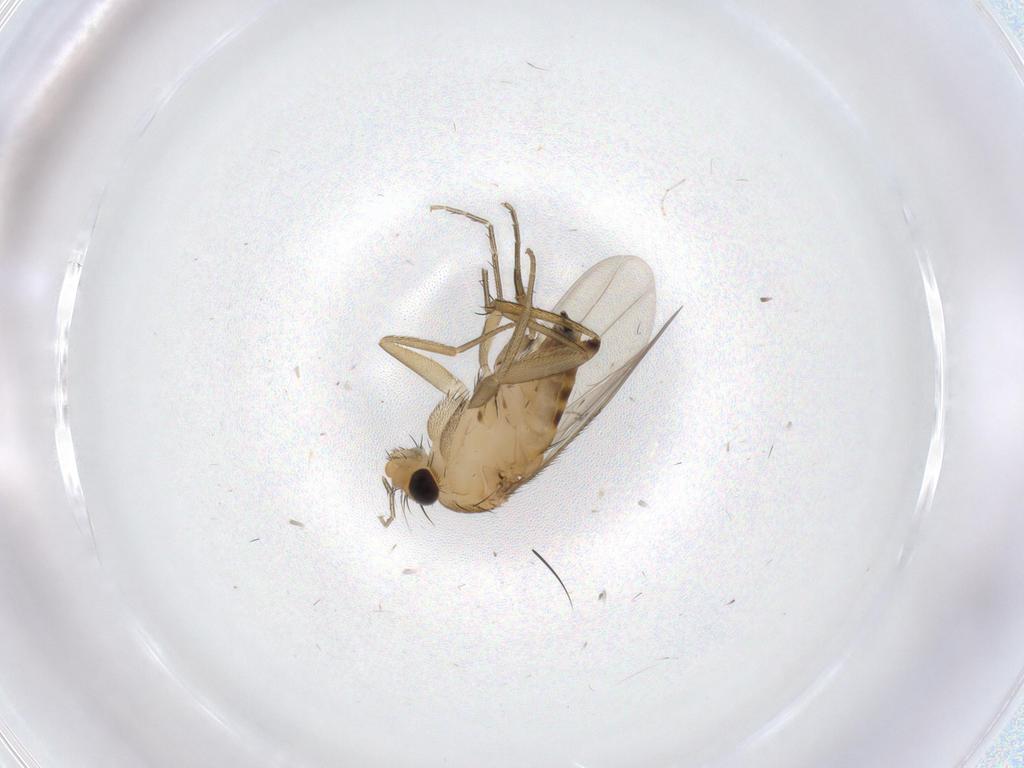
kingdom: Animalia
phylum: Arthropoda
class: Insecta
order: Diptera
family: Phoridae
